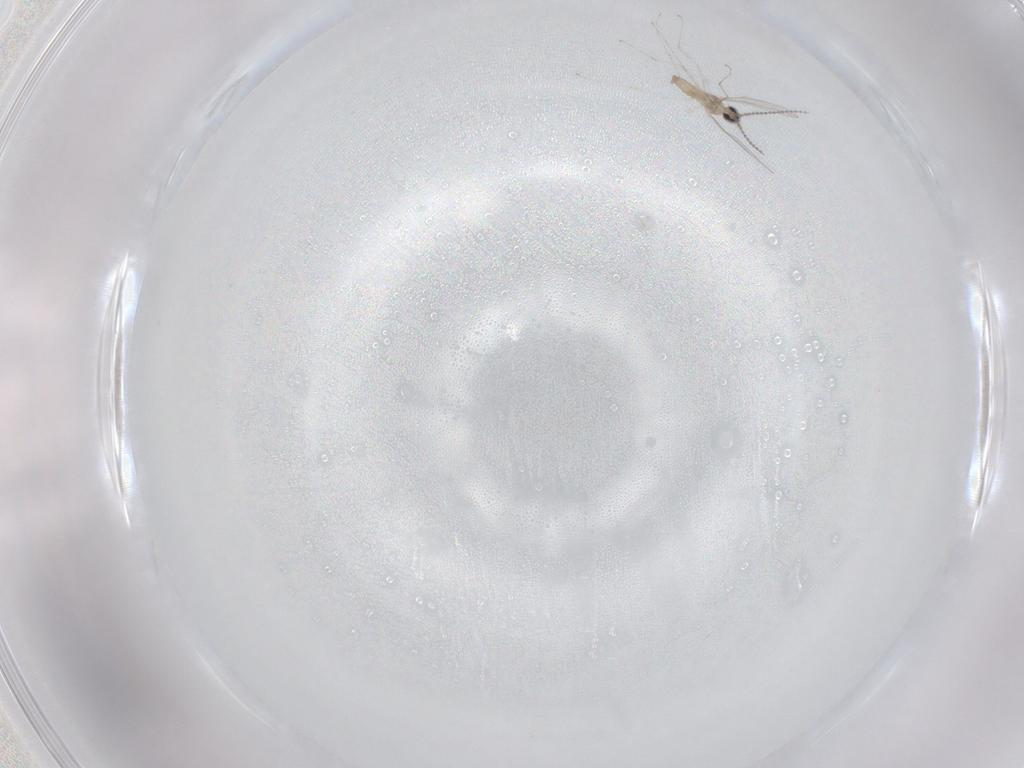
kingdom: Animalia
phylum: Arthropoda
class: Insecta
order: Diptera
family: Cecidomyiidae
